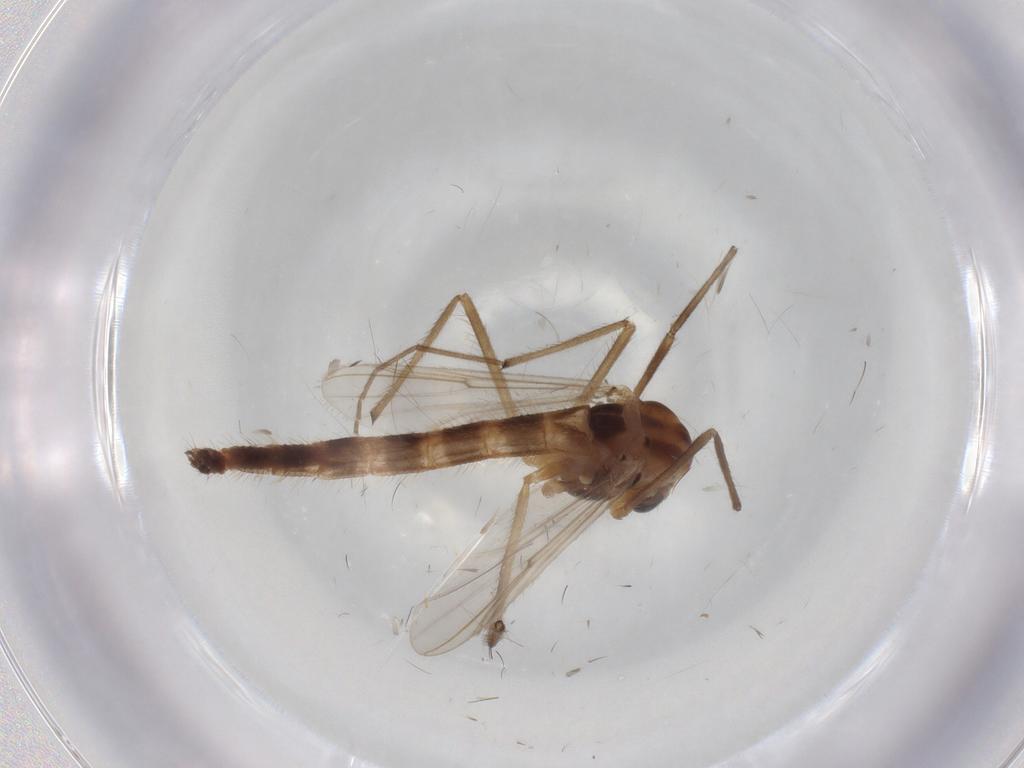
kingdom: Animalia
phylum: Arthropoda
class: Insecta
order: Diptera
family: Chironomidae
